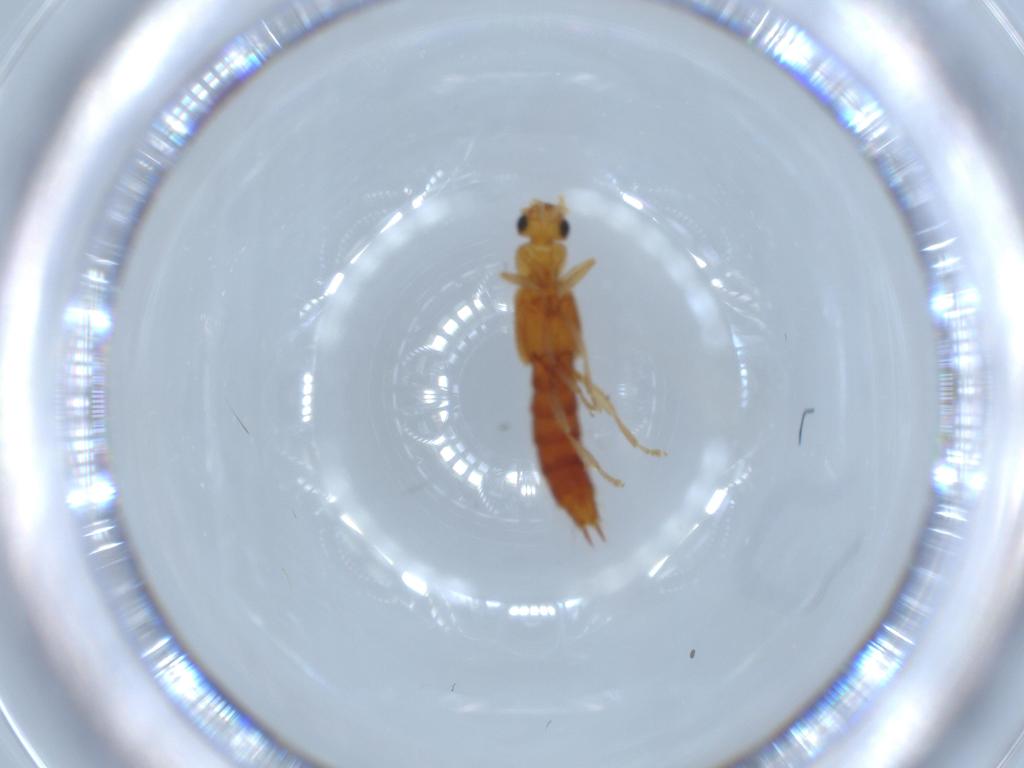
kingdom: Animalia
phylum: Arthropoda
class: Insecta
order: Coleoptera
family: Staphylinidae
